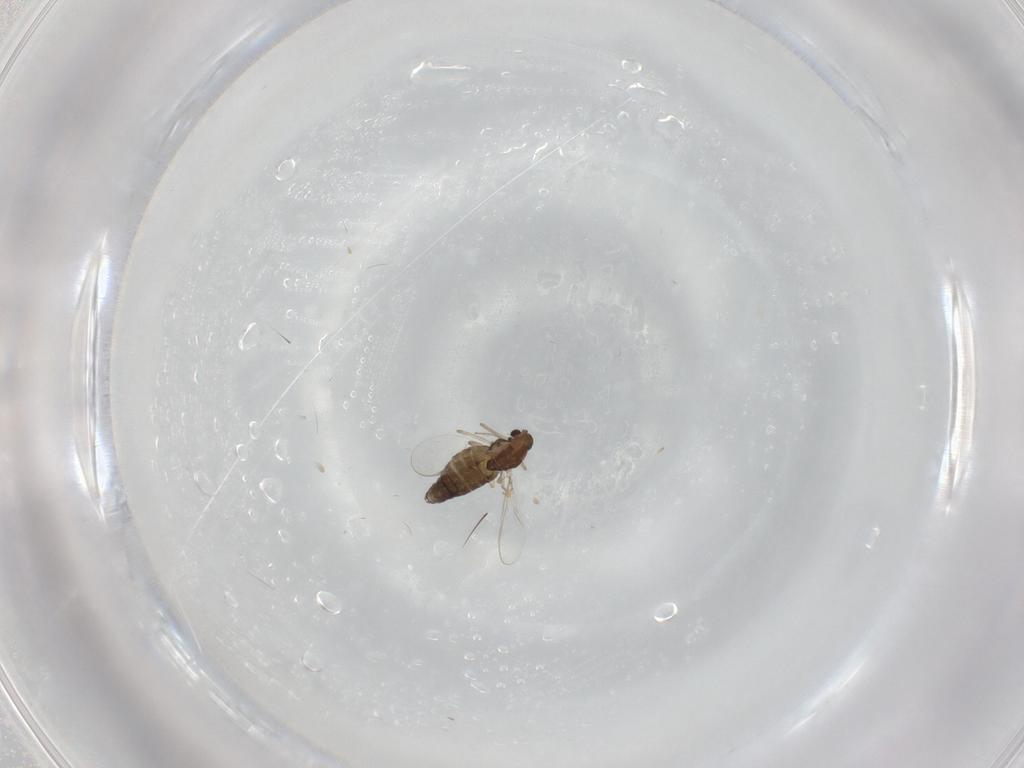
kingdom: Animalia
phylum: Arthropoda
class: Insecta
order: Diptera
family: Chironomidae
